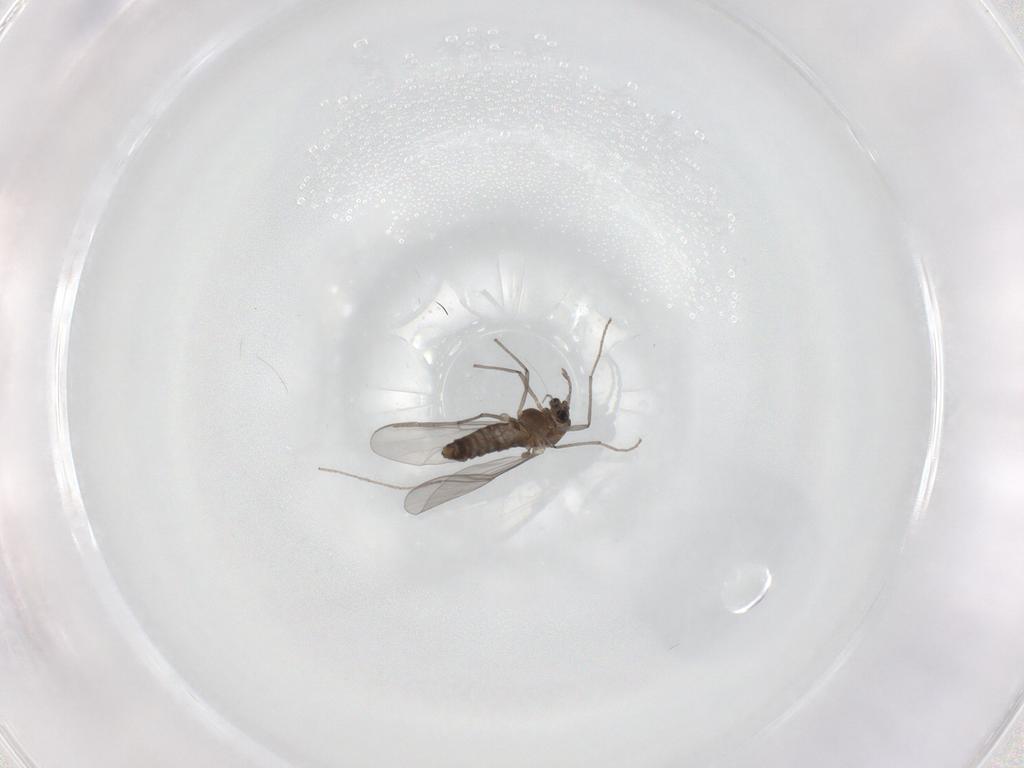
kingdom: Animalia
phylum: Arthropoda
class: Insecta
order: Diptera
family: Chironomidae
